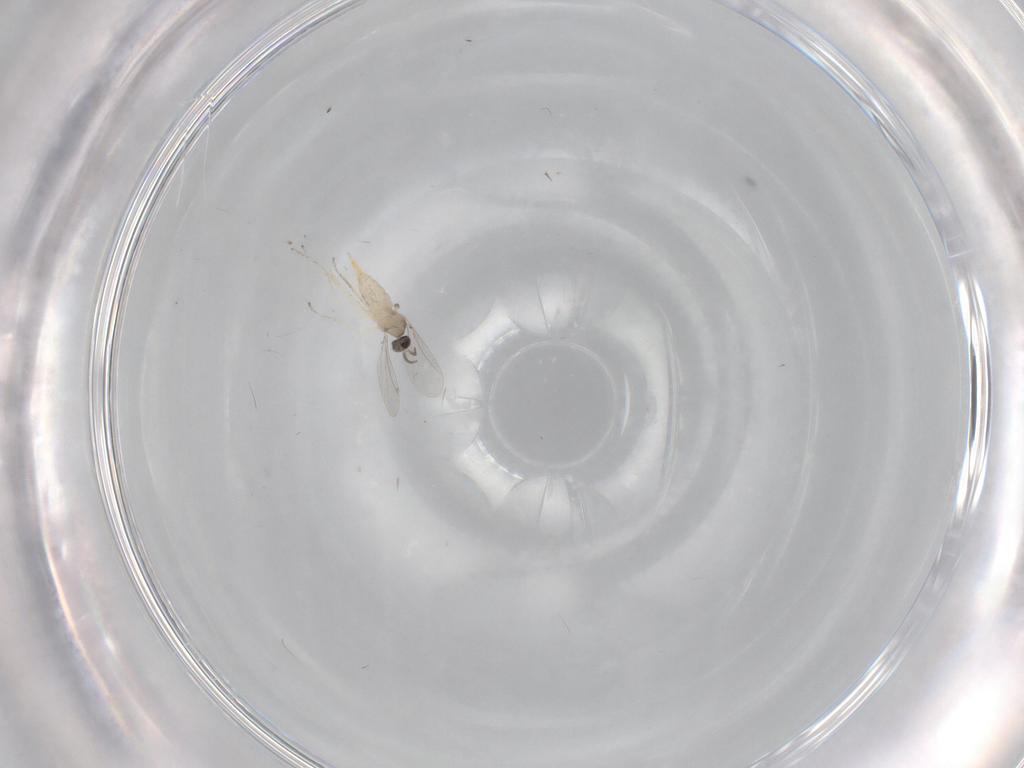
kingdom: Animalia
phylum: Arthropoda
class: Insecta
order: Diptera
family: Cecidomyiidae
